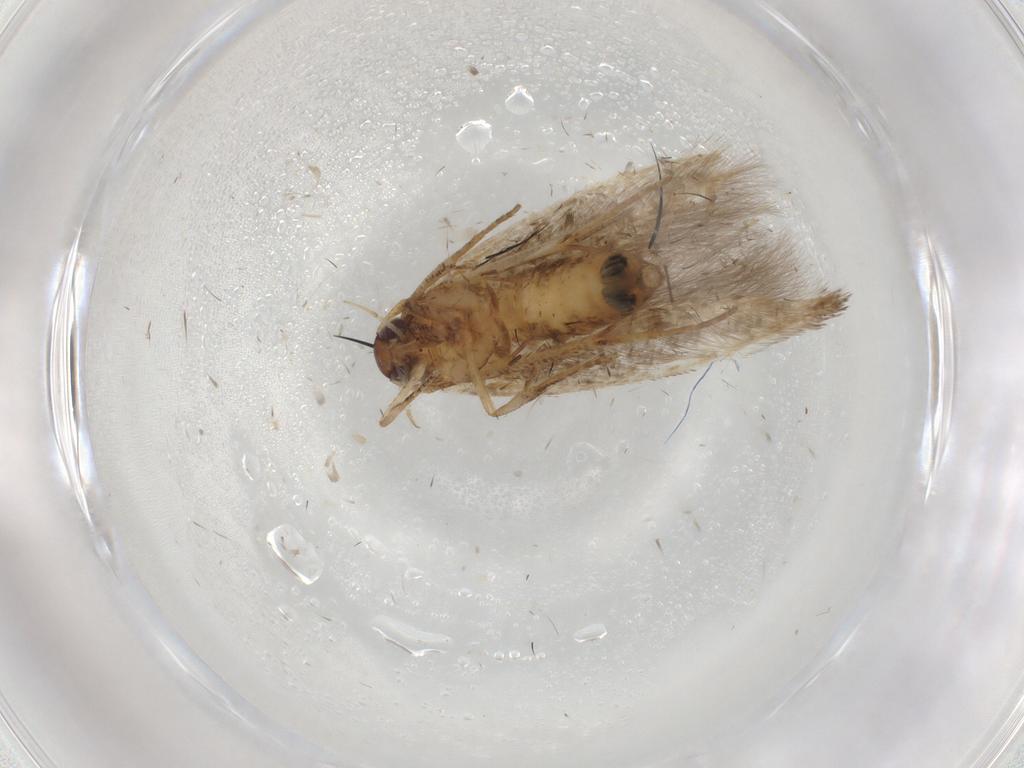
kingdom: Animalia
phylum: Arthropoda
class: Insecta
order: Lepidoptera
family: Cosmopterigidae
